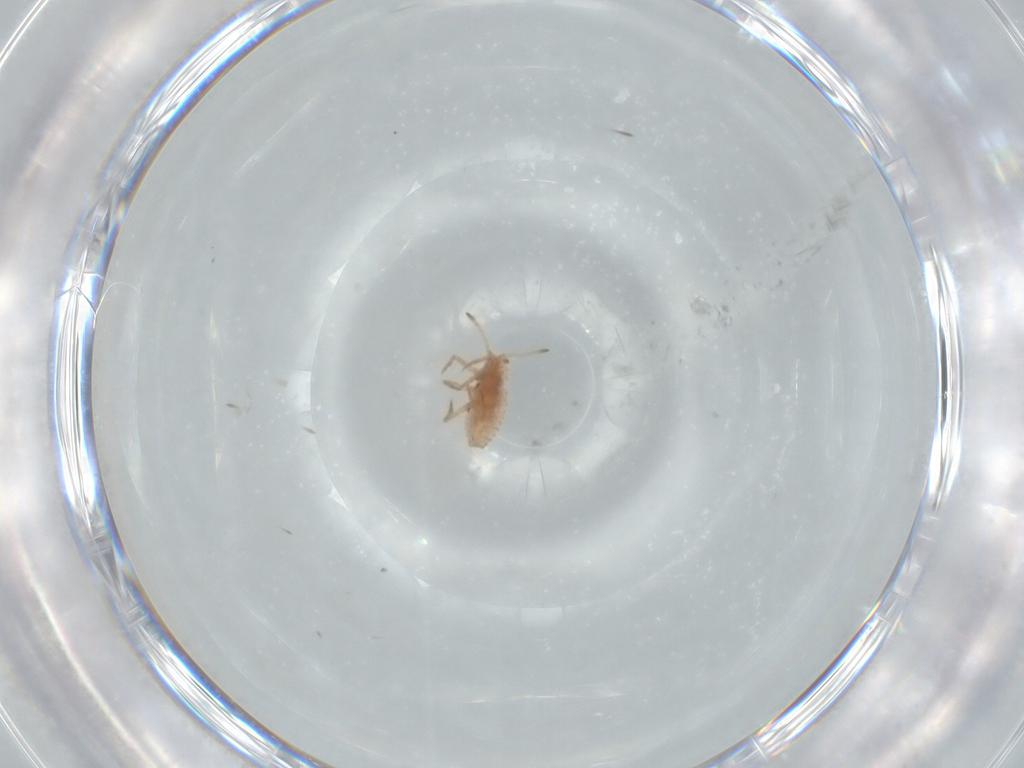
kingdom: Animalia
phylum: Arthropoda
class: Insecta
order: Hemiptera
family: Coccoidea_incertae_sedis
